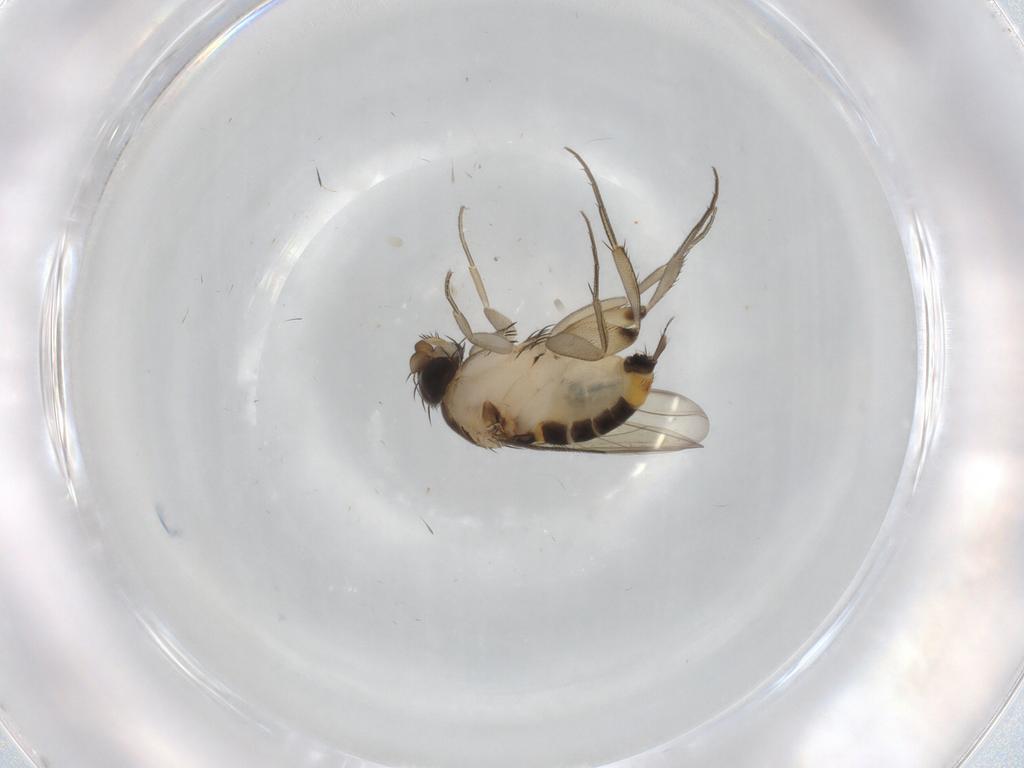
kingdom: Animalia
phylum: Arthropoda
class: Insecta
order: Diptera
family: Phoridae
